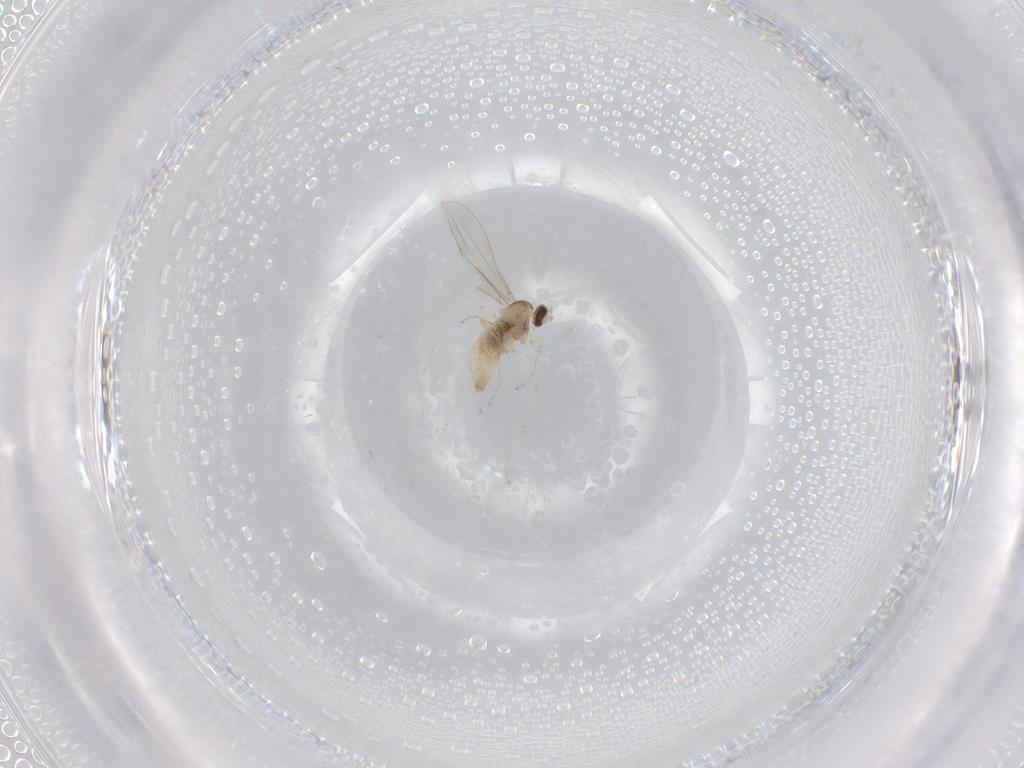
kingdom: Animalia
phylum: Arthropoda
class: Insecta
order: Diptera
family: Cecidomyiidae
